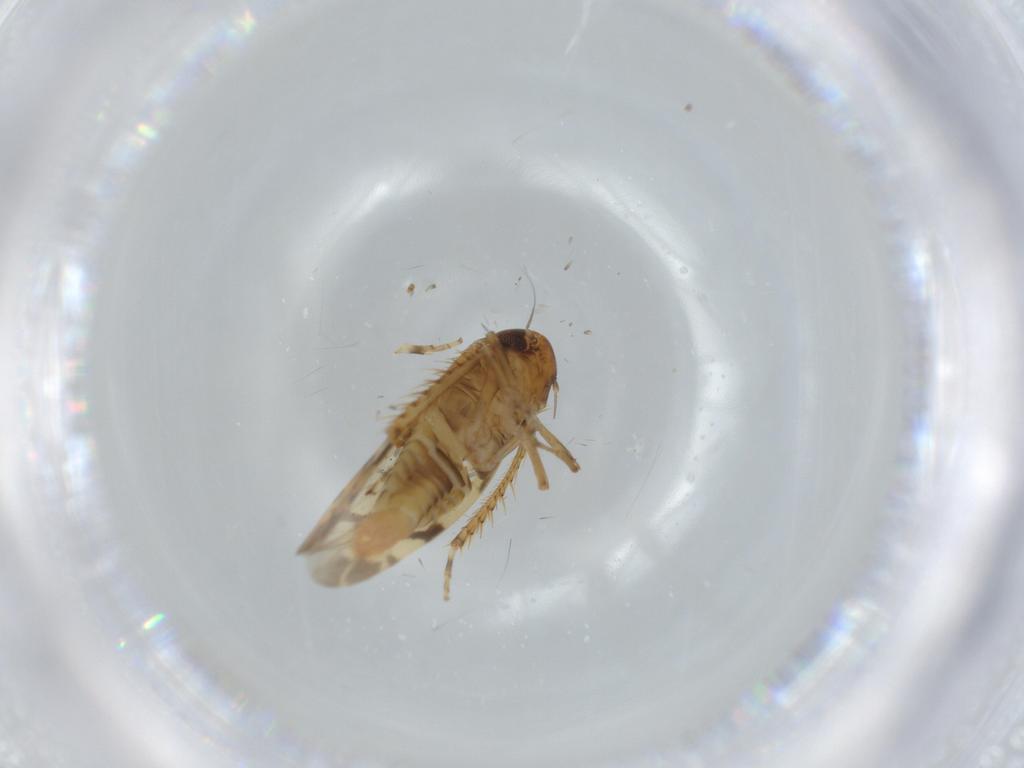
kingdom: Animalia
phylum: Arthropoda
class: Insecta
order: Hemiptera
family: Cicadellidae
